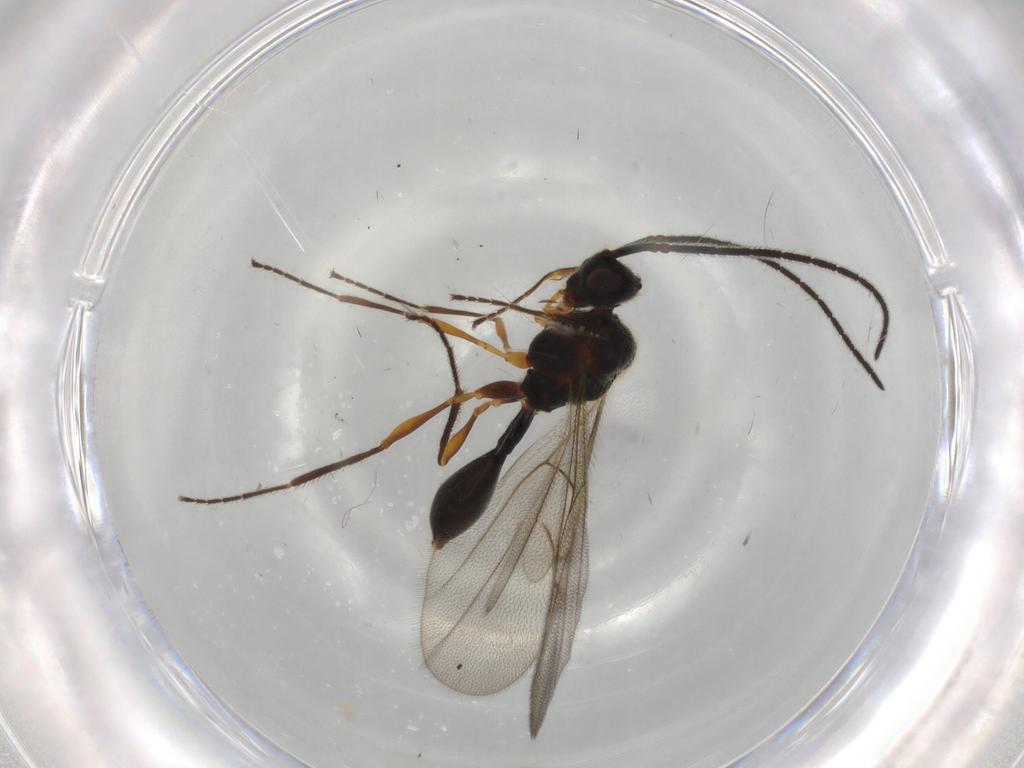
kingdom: Animalia
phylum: Arthropoda
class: Insecta
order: Hymenoptera
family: Diapriidae
